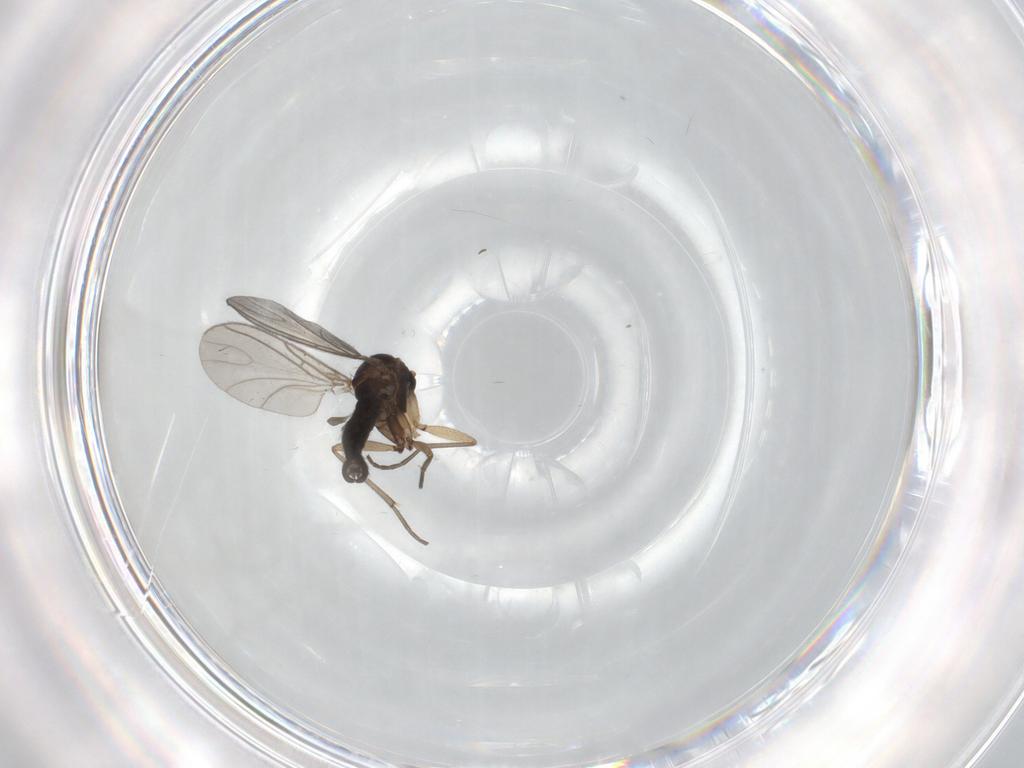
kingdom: Animalia
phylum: Arthropoda
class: Insecta
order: Diptera
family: Sciaridae
